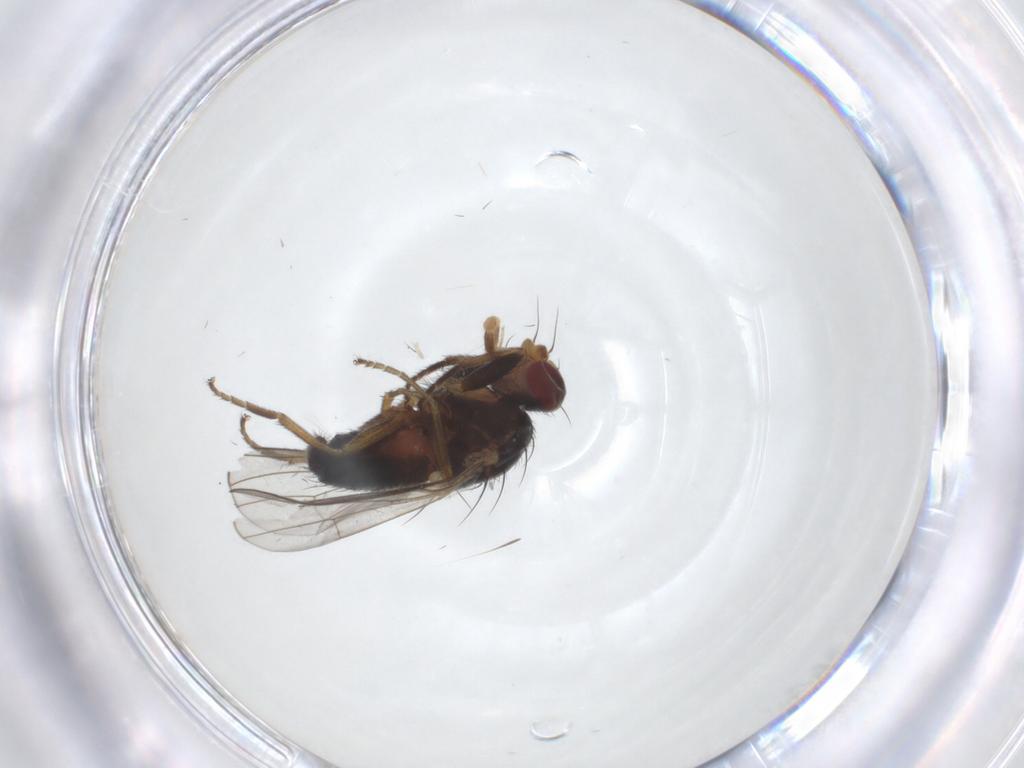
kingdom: Animalia
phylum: Arthropoda
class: Insecta
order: Diptera
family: Heleomyzidae
